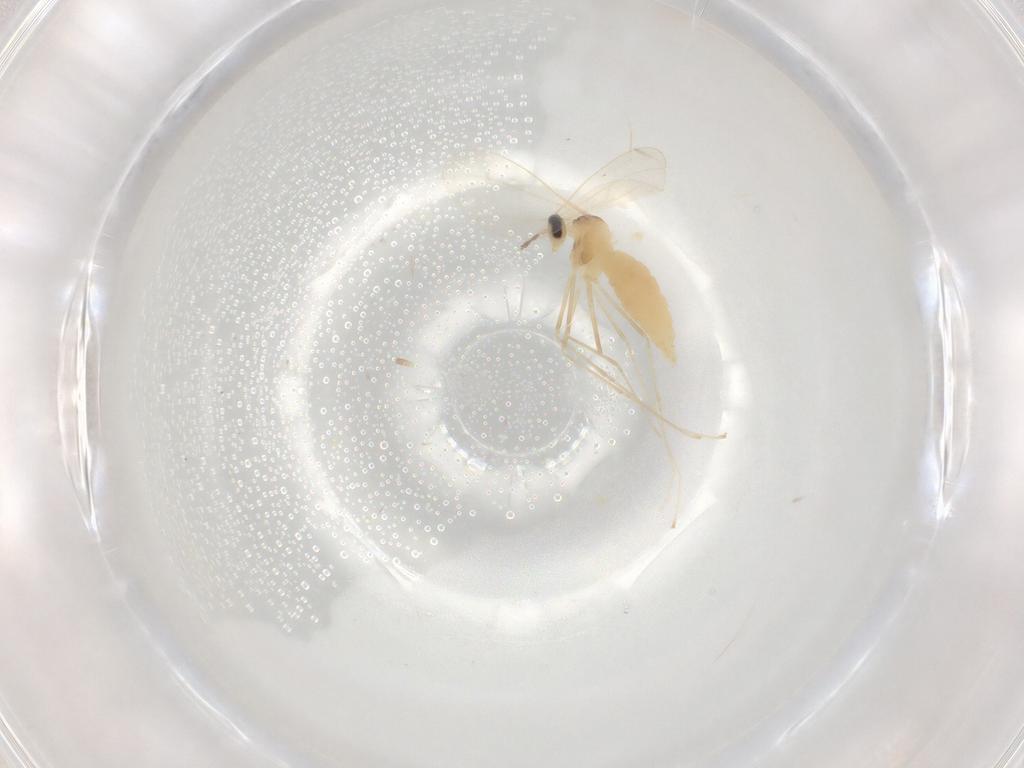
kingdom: Animalia
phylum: Arthropoda
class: Insecta
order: Diptera
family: Cecidomyiidae
